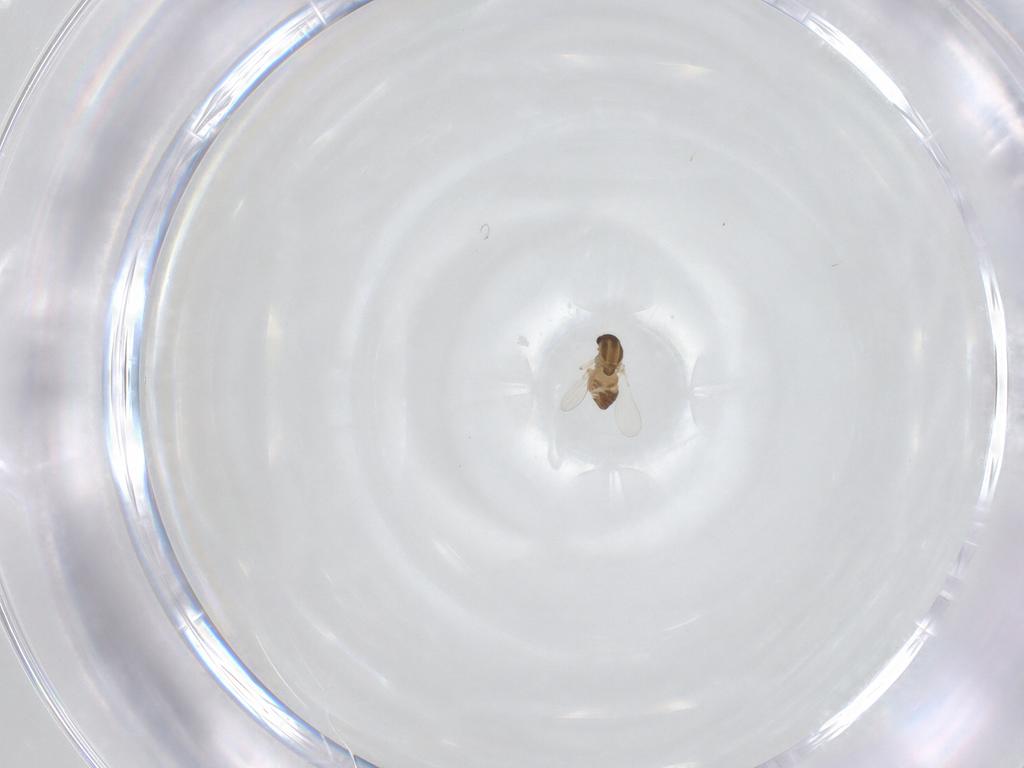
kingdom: Animalia
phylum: Arthropoda
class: Insecta
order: Diptera
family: Chironomidae
